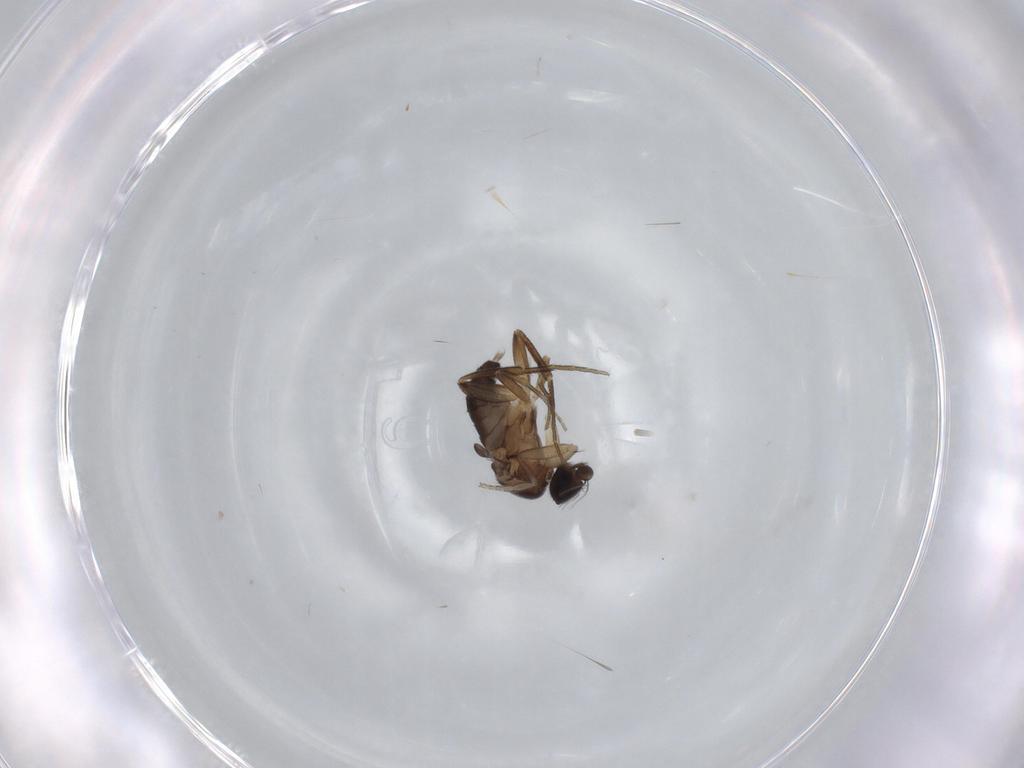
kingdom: Animalia
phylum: Arthropoda
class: Insecta
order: Diptera
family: Phoridae
